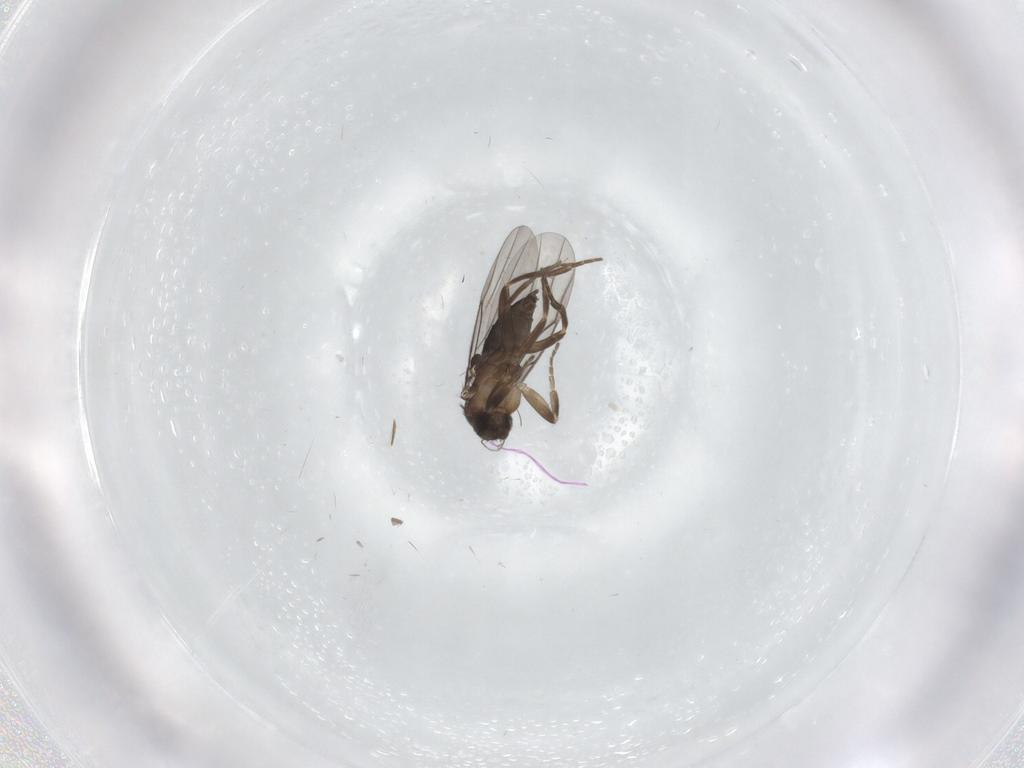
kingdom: Animalia
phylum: Arthropoda
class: Insecta
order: Diptera
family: Phoridae
